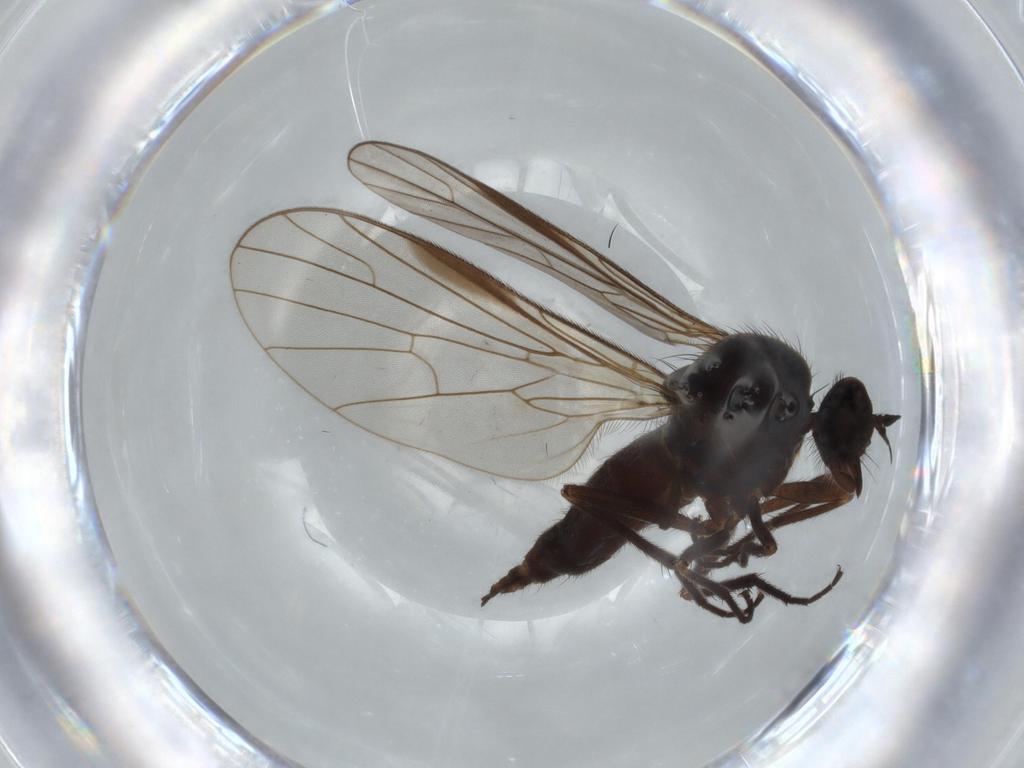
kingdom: Animalia
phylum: Arthropoda
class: Insecta
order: Diptera
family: Empididae
